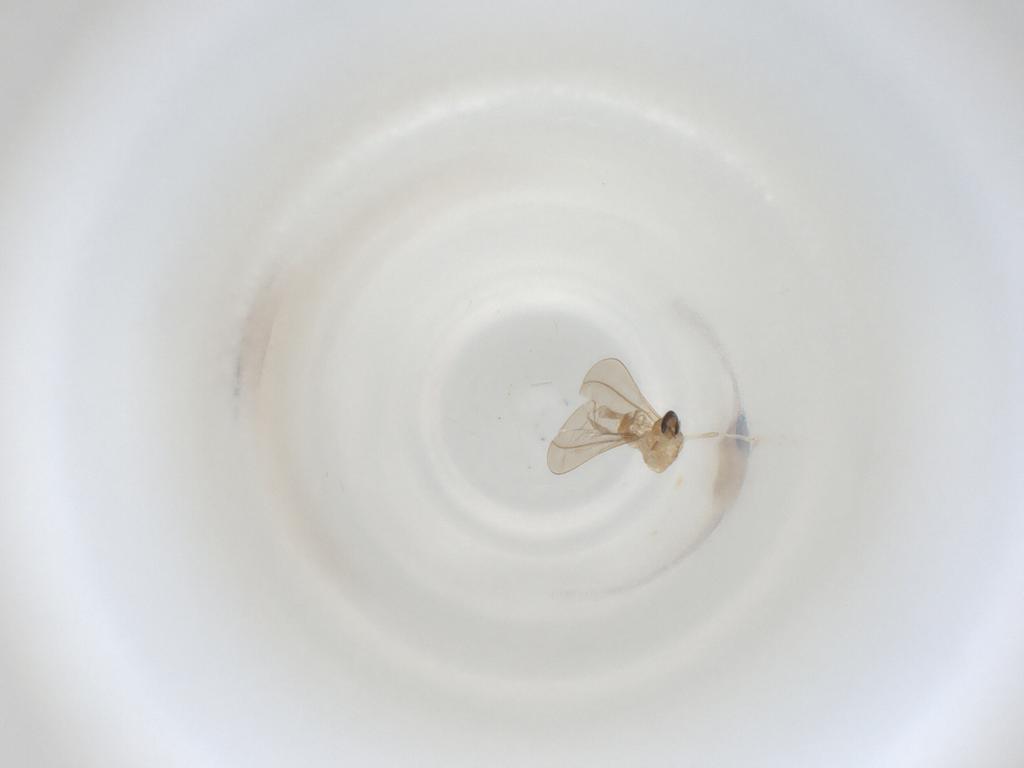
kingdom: Animalia
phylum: Arthropoda
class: Insecta
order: Diptera
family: Cecidomyiidae
